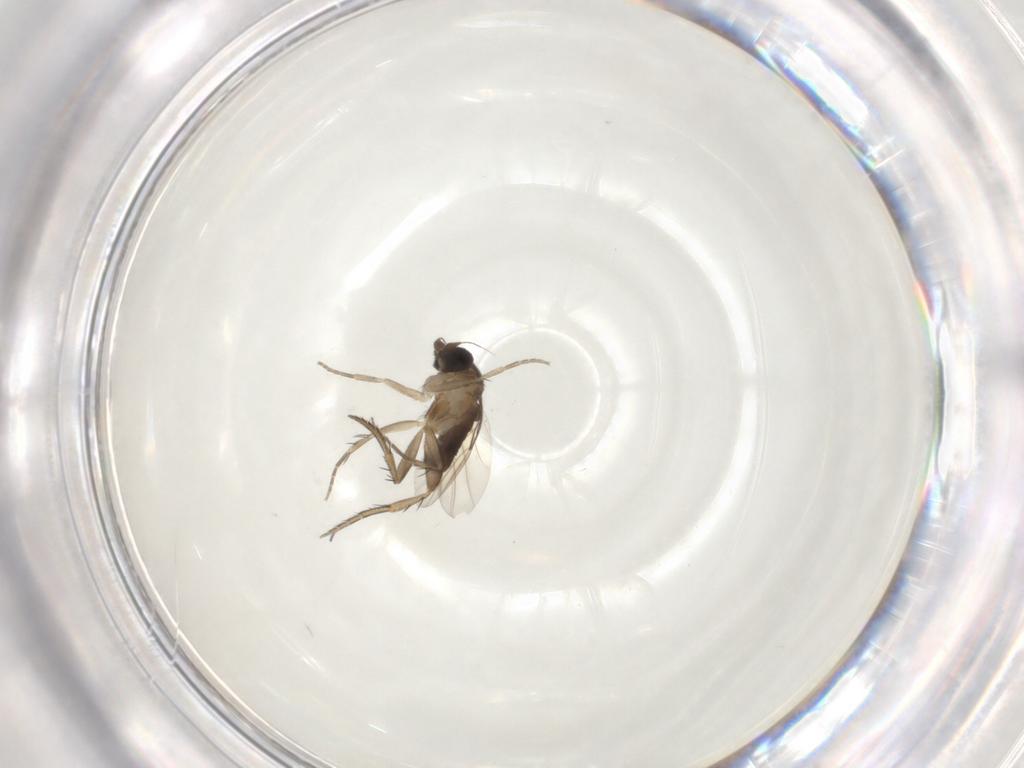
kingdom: Animalia
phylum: Arthropoda
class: Insecta
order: Diptera
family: Phoridae
